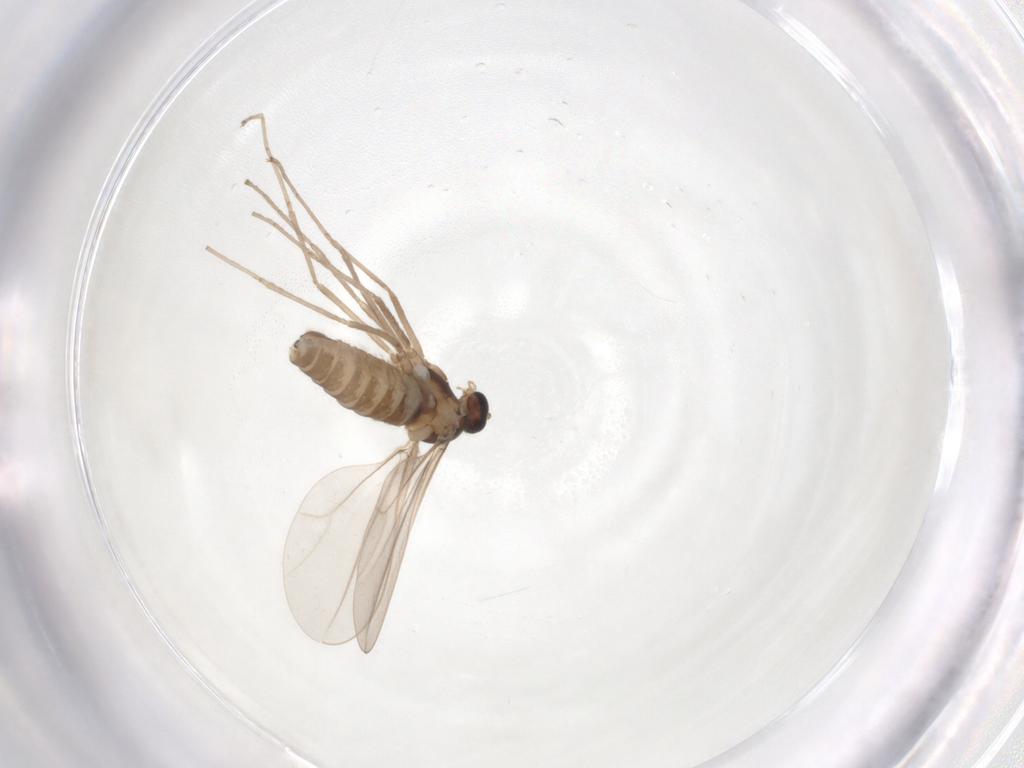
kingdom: Animalia
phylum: Arthropoda
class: Insecta
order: Diptera
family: Cecidomyiidae
